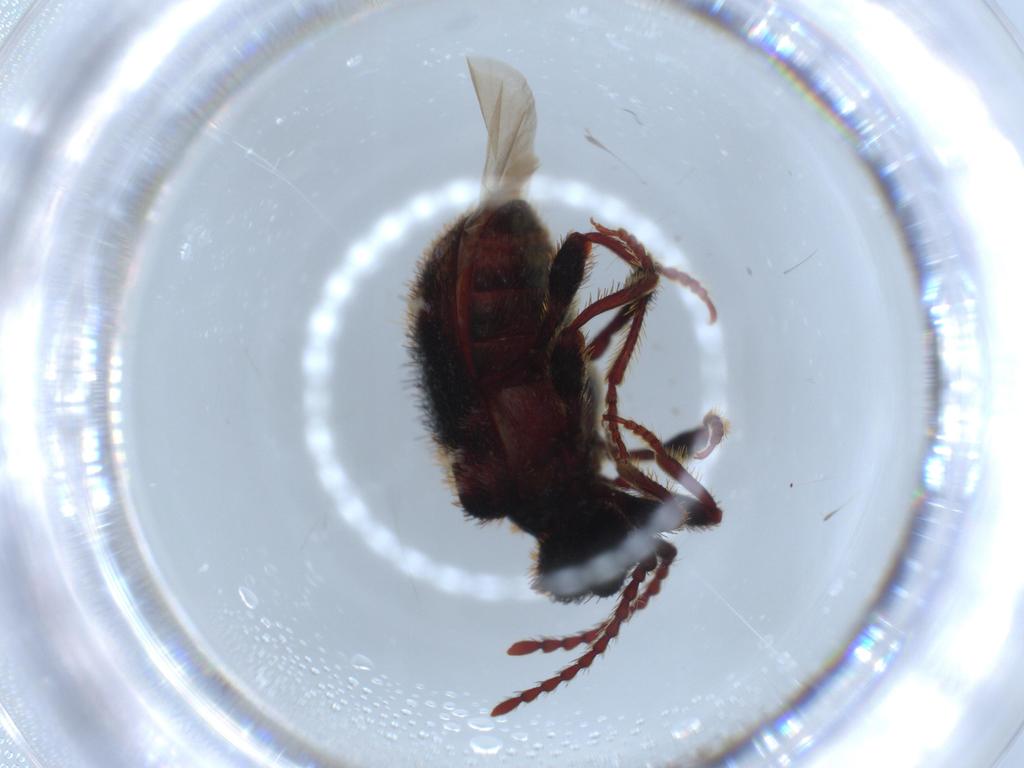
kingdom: Animalia
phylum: Arthropoda
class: Insecta
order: Coleoptera
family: Ptinidae
